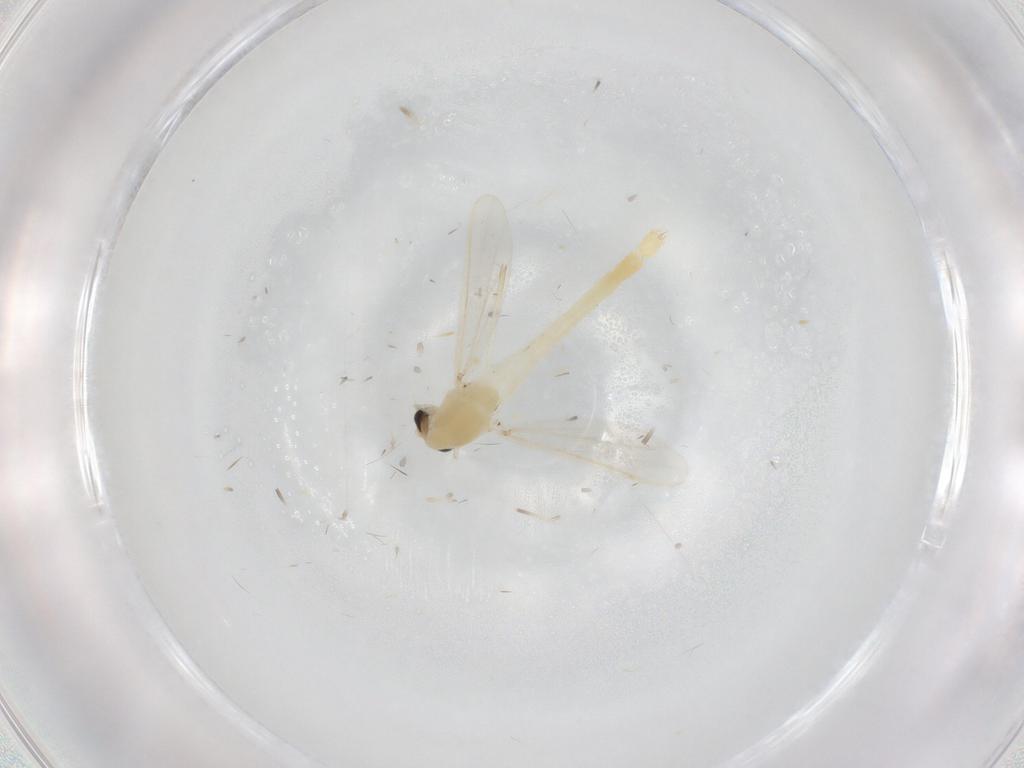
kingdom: Animalia
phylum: Arthropoda
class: Insecta
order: Diptera
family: Chironomidae
